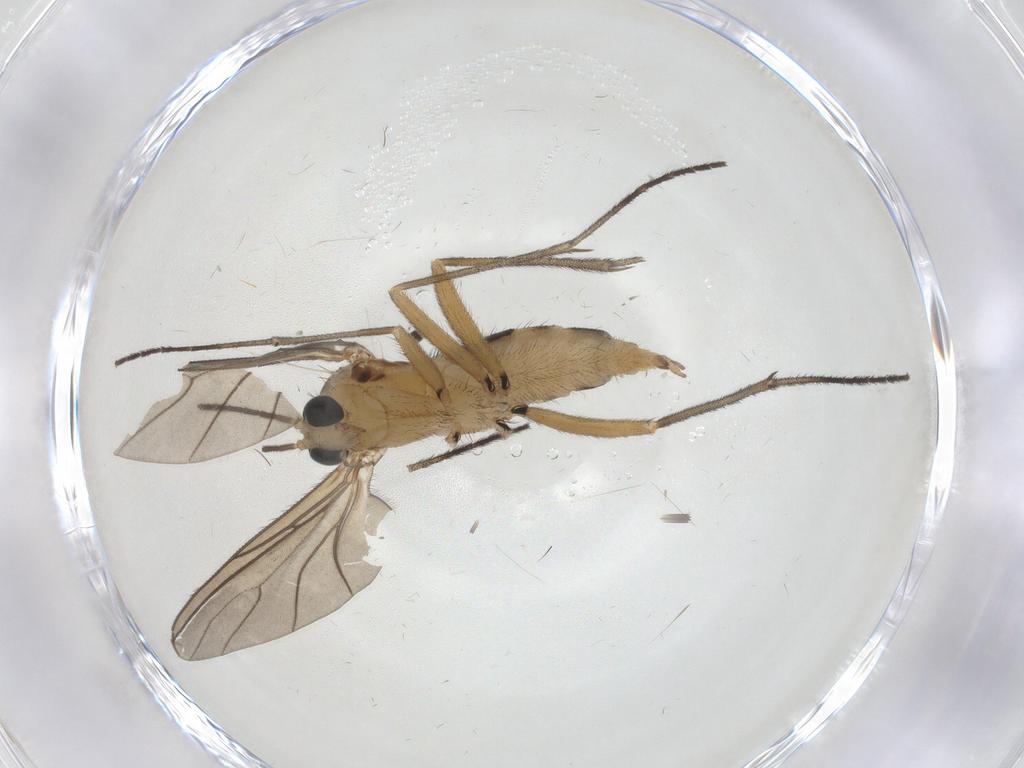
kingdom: Animalia
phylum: Arthropoda
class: Insecta
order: Diptera
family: Sciaridae
